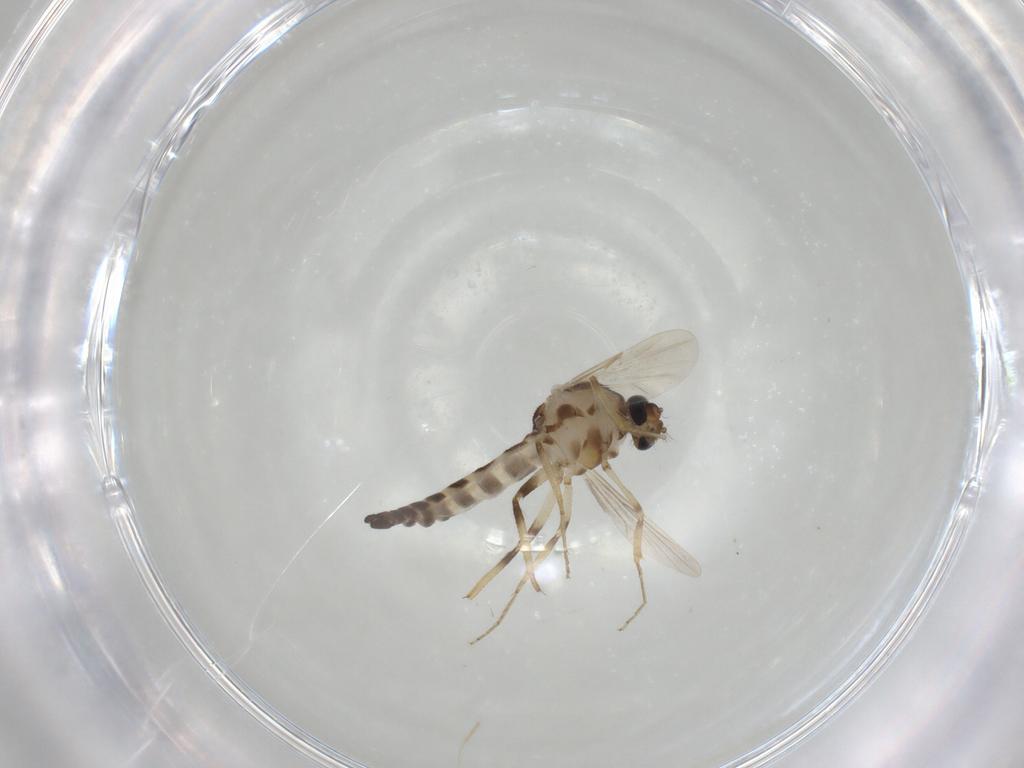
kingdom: Animalia
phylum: Arthropoda
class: Insecta
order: Diptera
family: Ceratopogonidae
